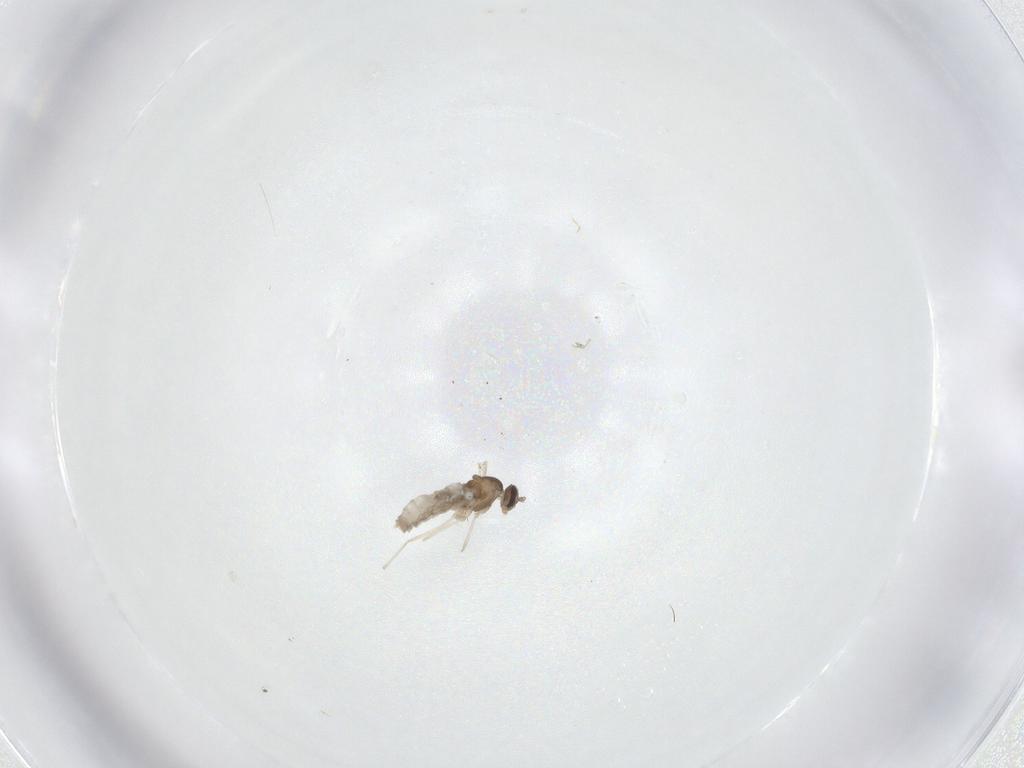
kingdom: Animalia
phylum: Arthropoda
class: Insecta
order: Diptera
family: Cecidomyiidae
